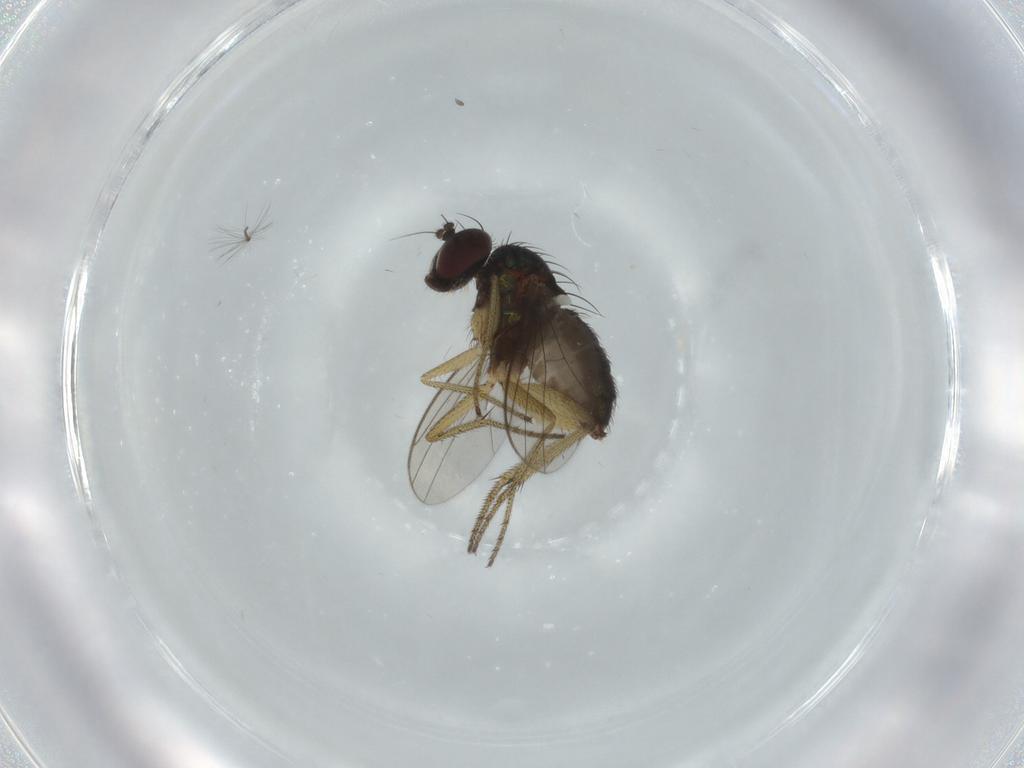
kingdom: Animalia
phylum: Arthropoda
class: Insecta
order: Diptera
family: Dolichopodidae
